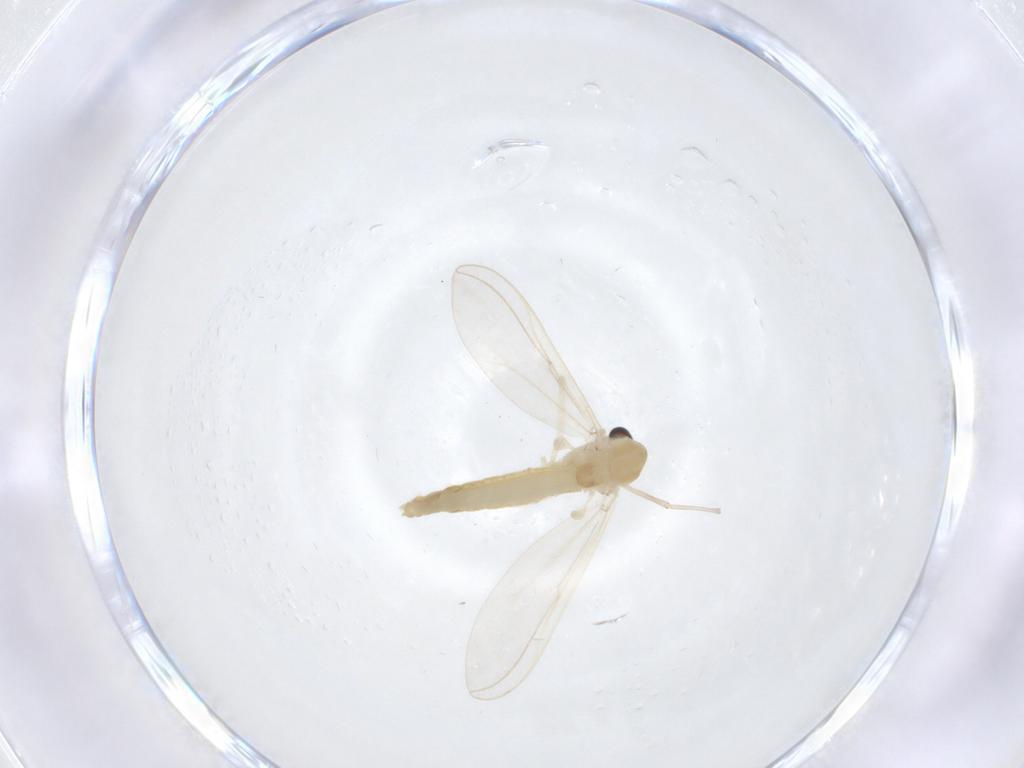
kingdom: Animalia
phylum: Arthropoda
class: Insecta
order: Diptera
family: Chironomidae
